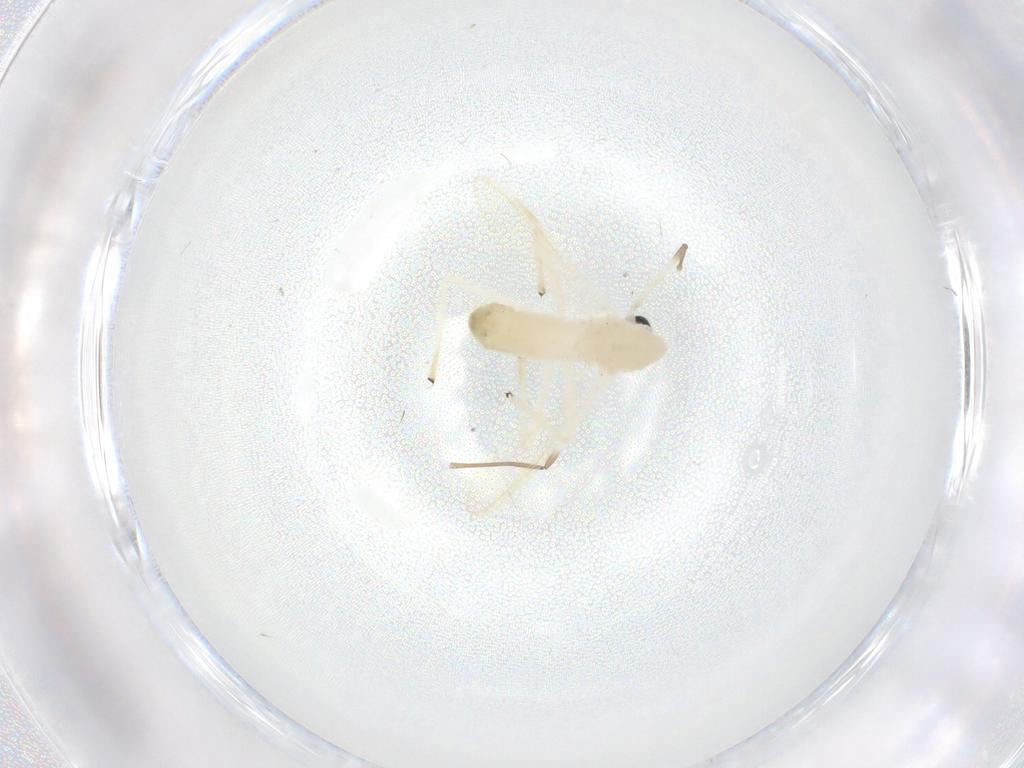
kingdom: Animalia
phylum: Arthropoda
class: Insecta
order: Diptera
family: Chironomidae
